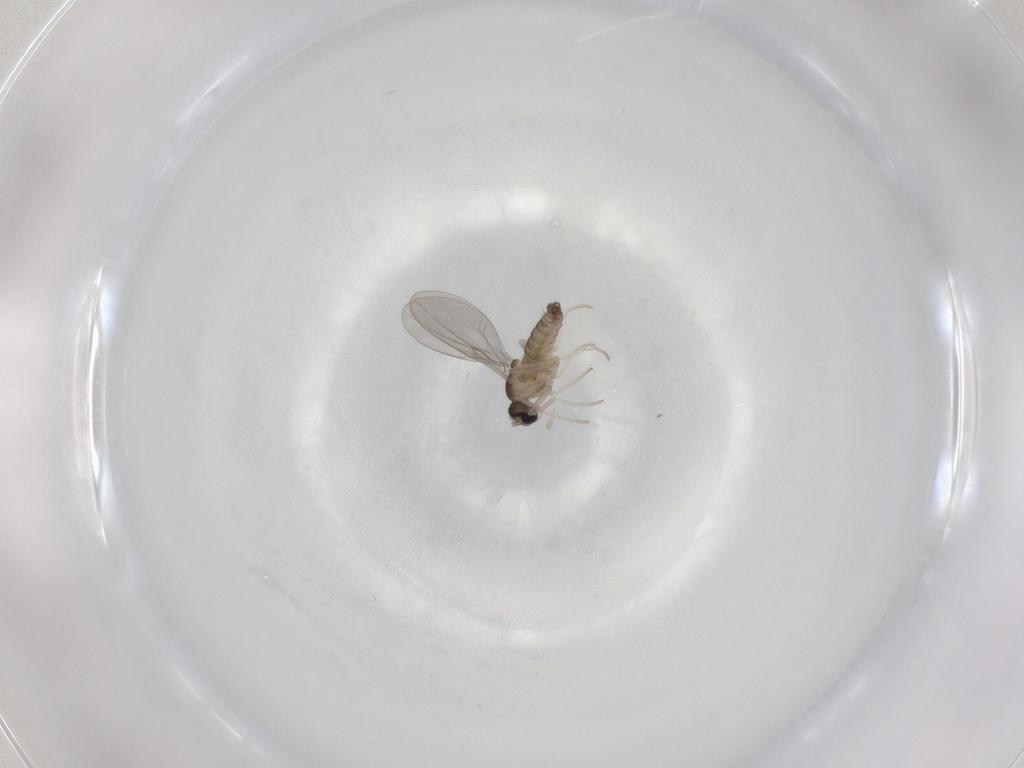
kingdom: Animalia
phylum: Arthropoda
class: Insecta
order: Diptera
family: Cecidomyiidae
